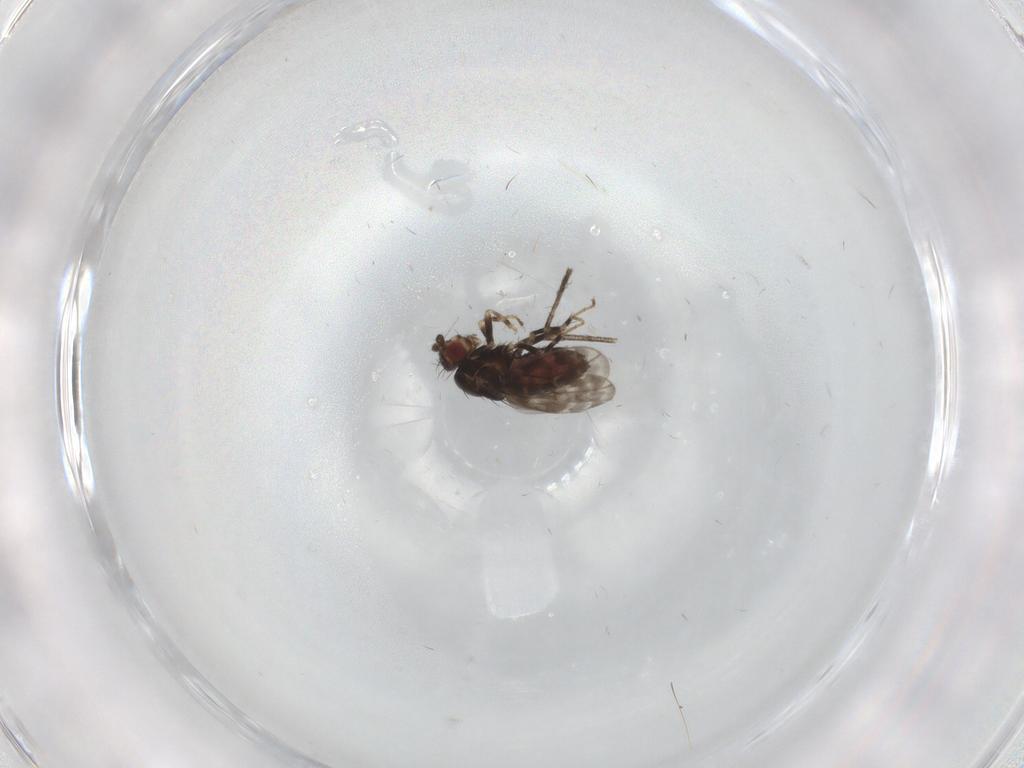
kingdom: Animalia
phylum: Arthropoda
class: Insecta
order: Diptera
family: Sphaeroceridae
